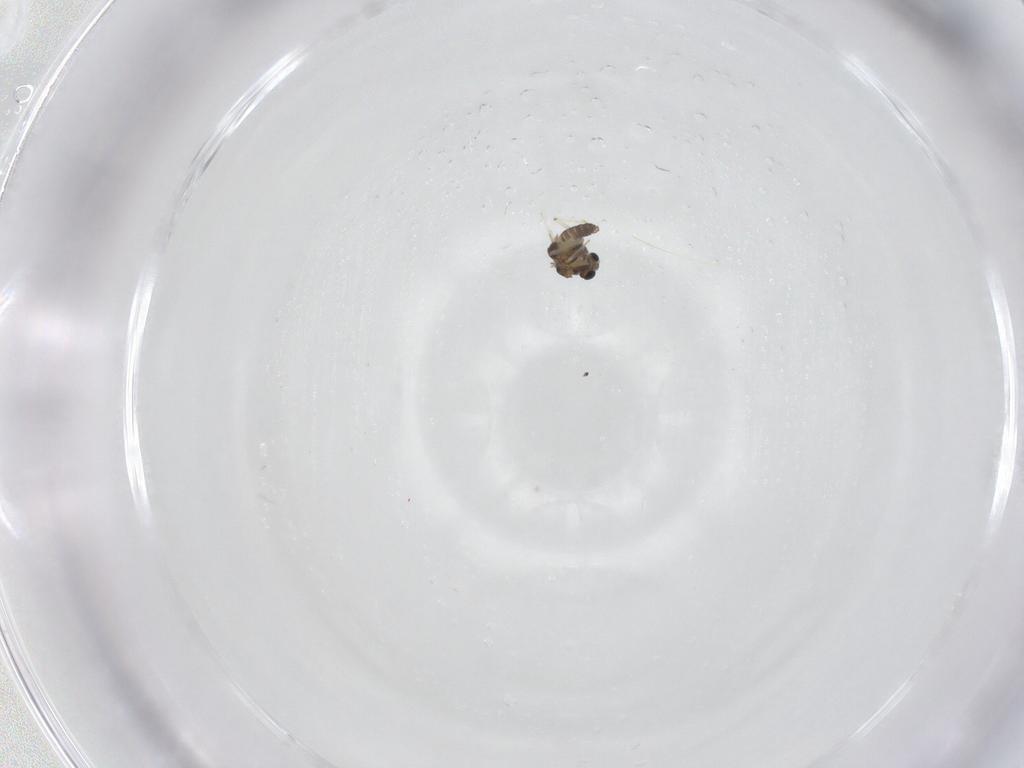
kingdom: Animalia
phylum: Arthropoda
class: Insecta
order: Diptera
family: Chironomidae
